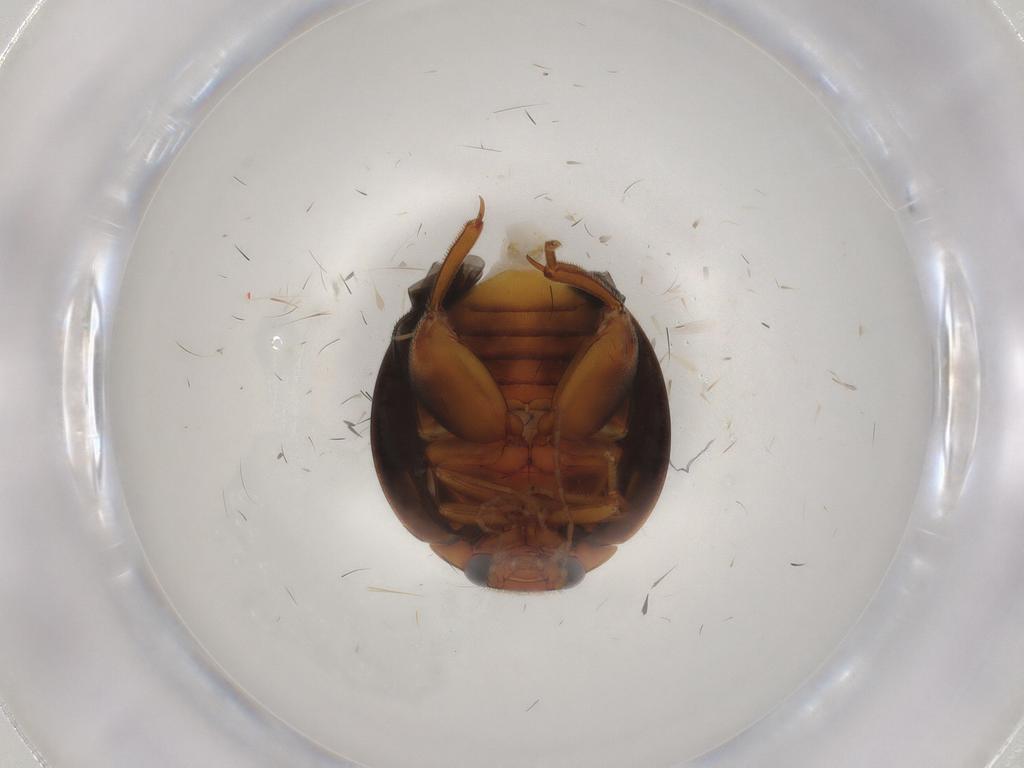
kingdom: Animalia
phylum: Arthropoda
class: Insecta
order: Coleoptera
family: Scirtidae
